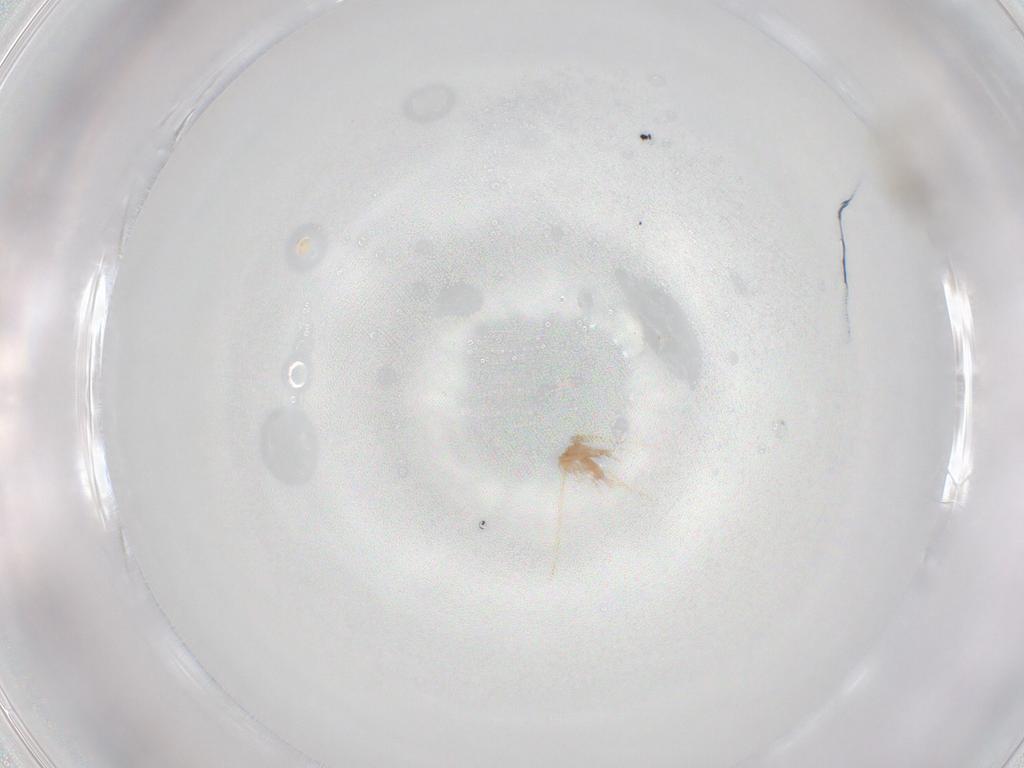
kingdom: Animalia
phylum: Arthropoda
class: Insecta
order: Diptera
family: Cecidomyiidae
